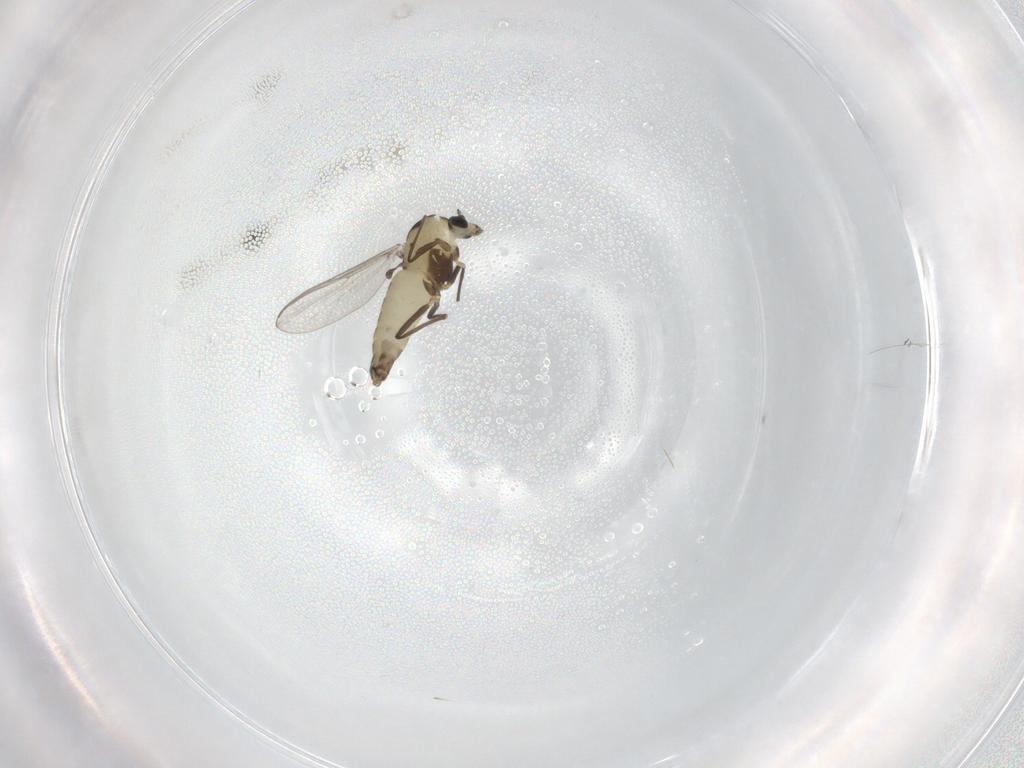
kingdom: Animalia
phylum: Arthropoda
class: Insecta
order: Diptera
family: Chironomidae
